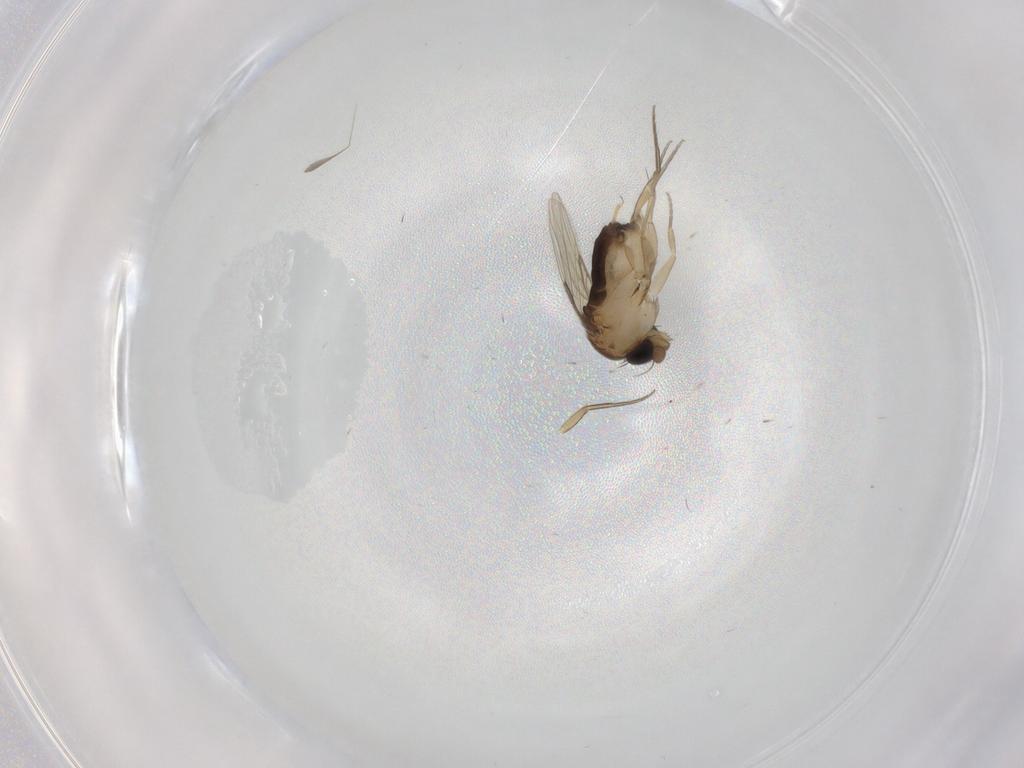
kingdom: Animalia
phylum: Arthropoda
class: Insecta
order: Diptera
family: Phoridae
